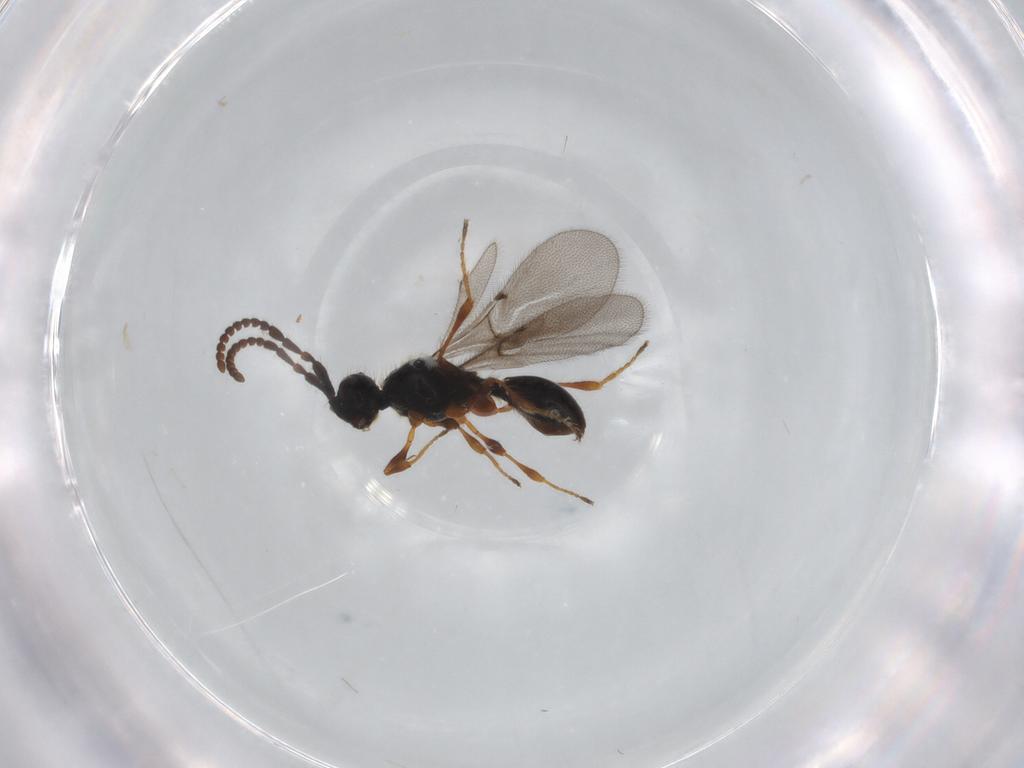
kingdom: Animalia
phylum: Arthropoda
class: Insecta
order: Hymenoptera
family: Diapriidae
